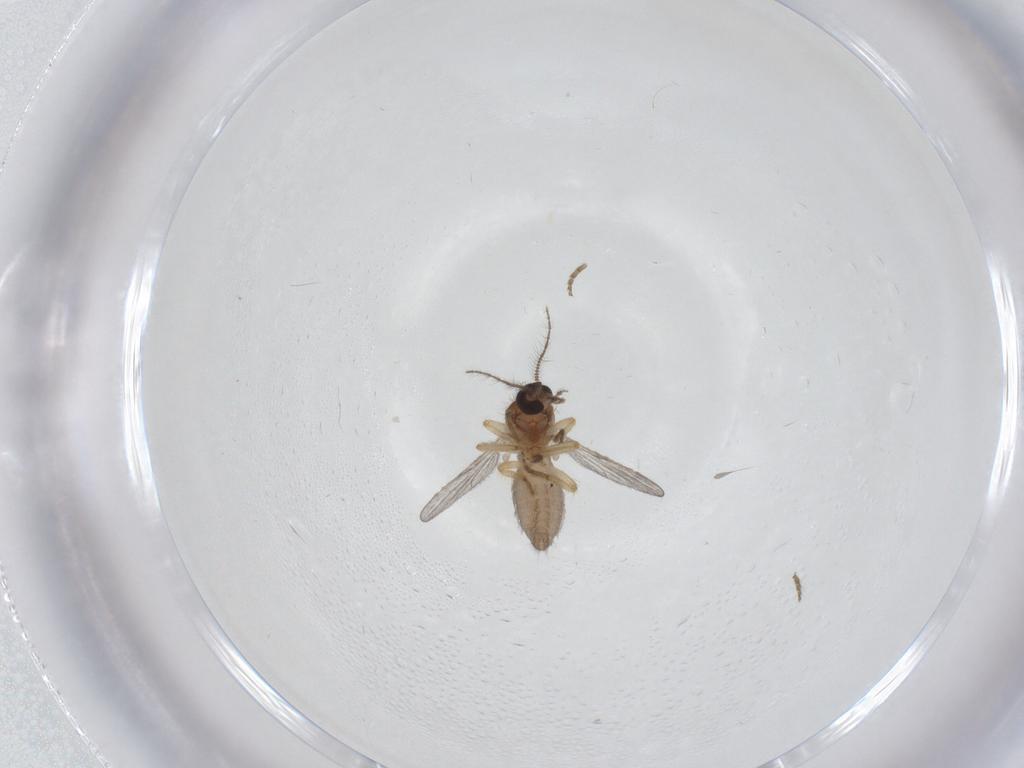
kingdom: Animalia
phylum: Arthropoda
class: Insecta
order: Diptera
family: Ceratopogonidae
